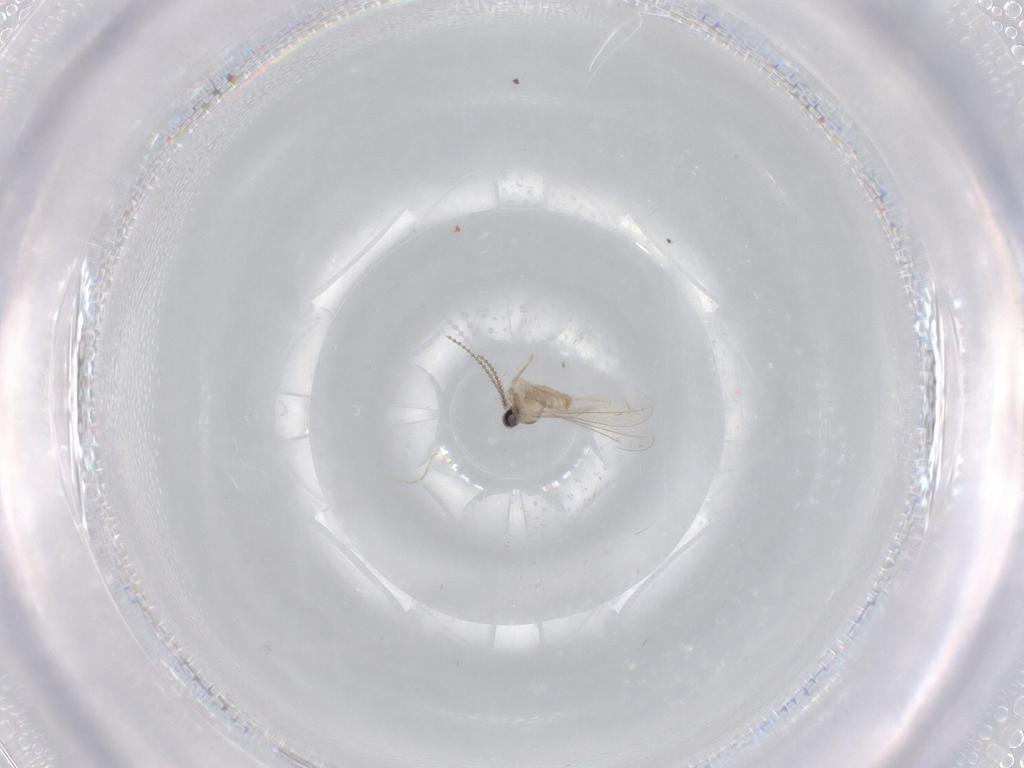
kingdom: Animalia
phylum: Arthropoda
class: Insecta
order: Diptera
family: Cecidomyiidae
